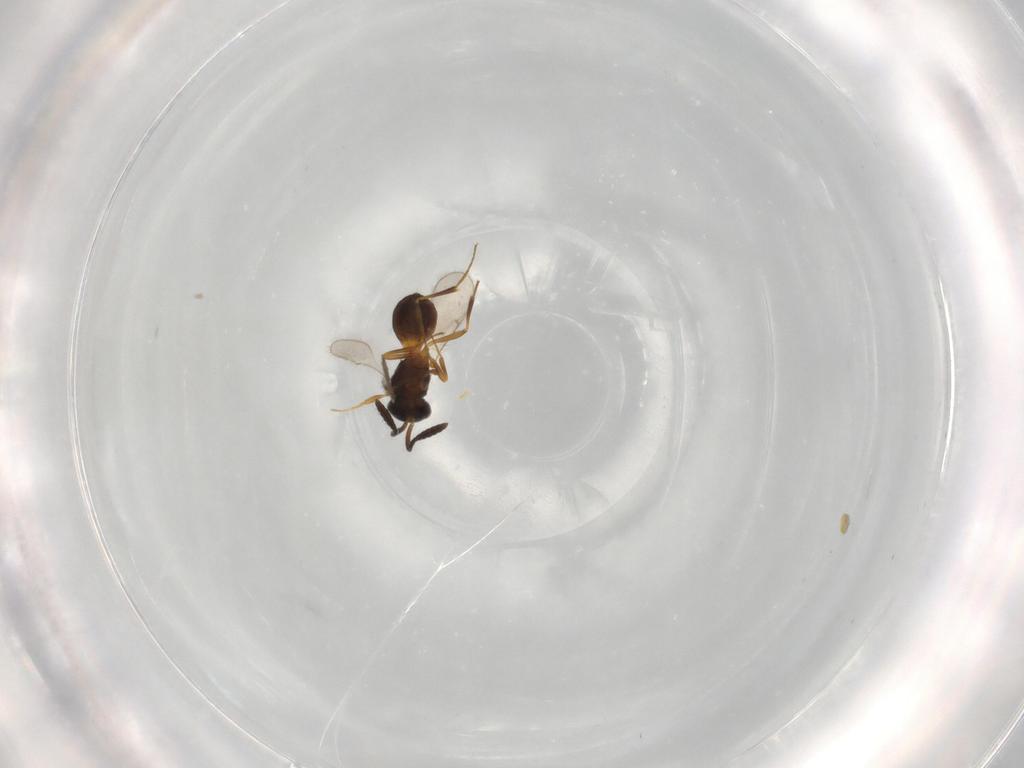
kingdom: Animalia
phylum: Arthropoda
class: Insecta
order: Hymenoptera
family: Scelionidae
